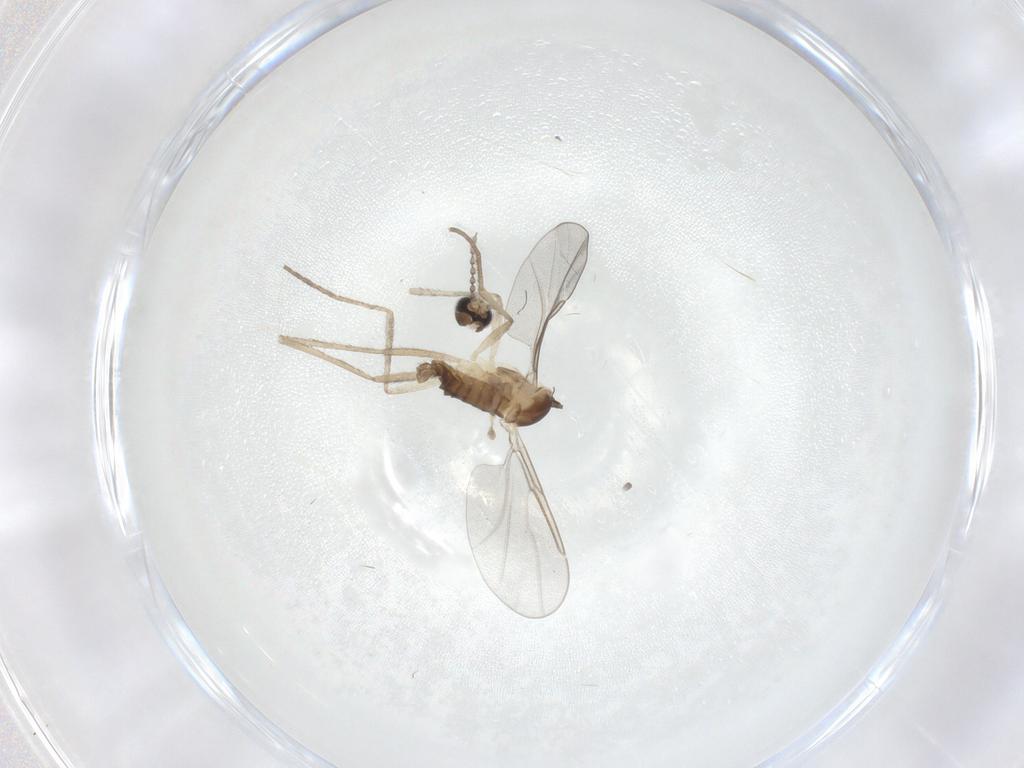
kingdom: Animalia
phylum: Arthropoda
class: Insecta
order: Diptera
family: Cecidomyiidae
